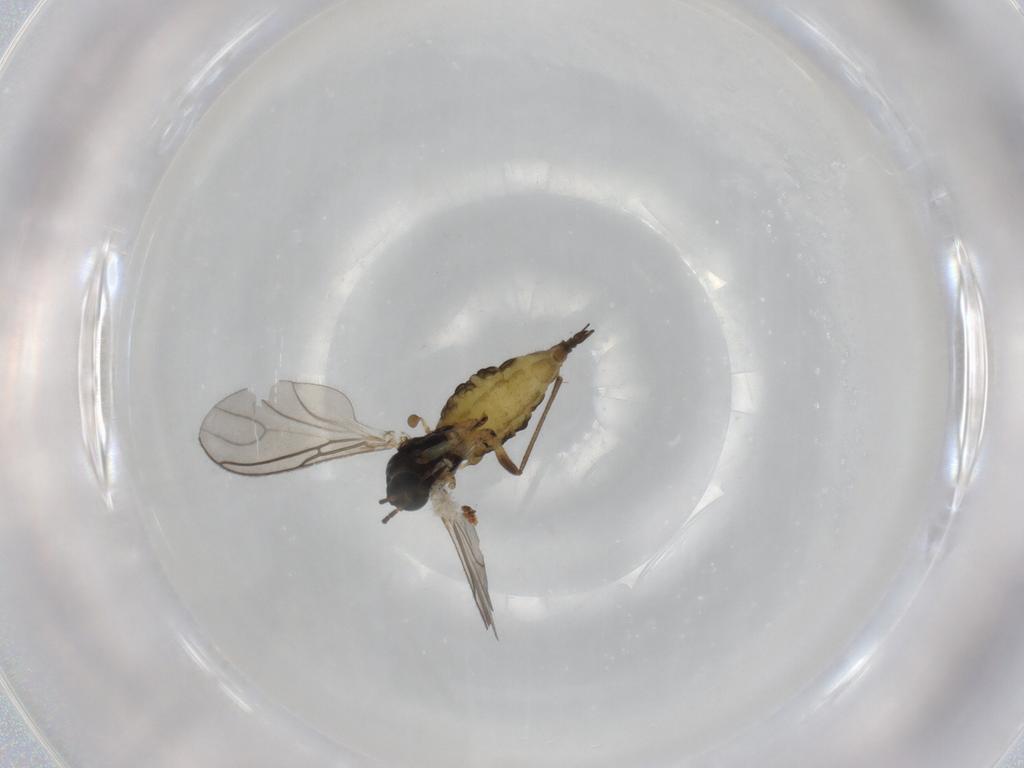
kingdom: Animalia
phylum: Arthropoda
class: Insecta
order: Diptera
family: Sciaridae
